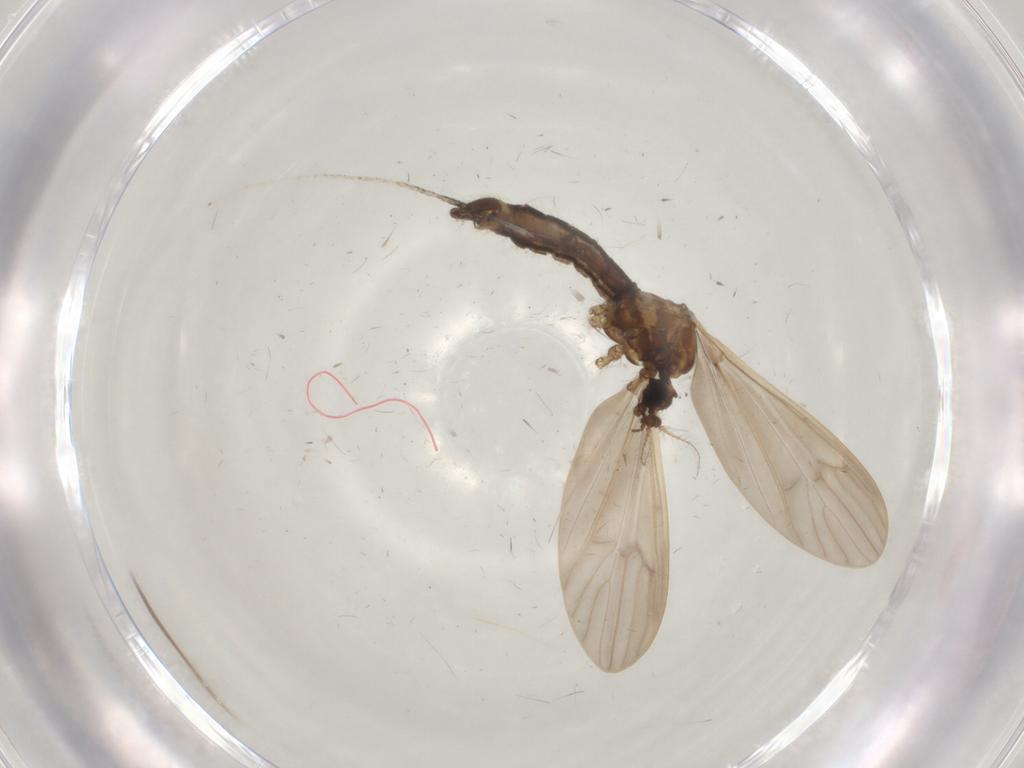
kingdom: Animalia
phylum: Arthropoda
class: Insecta
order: Diptera
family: Limoniidae
